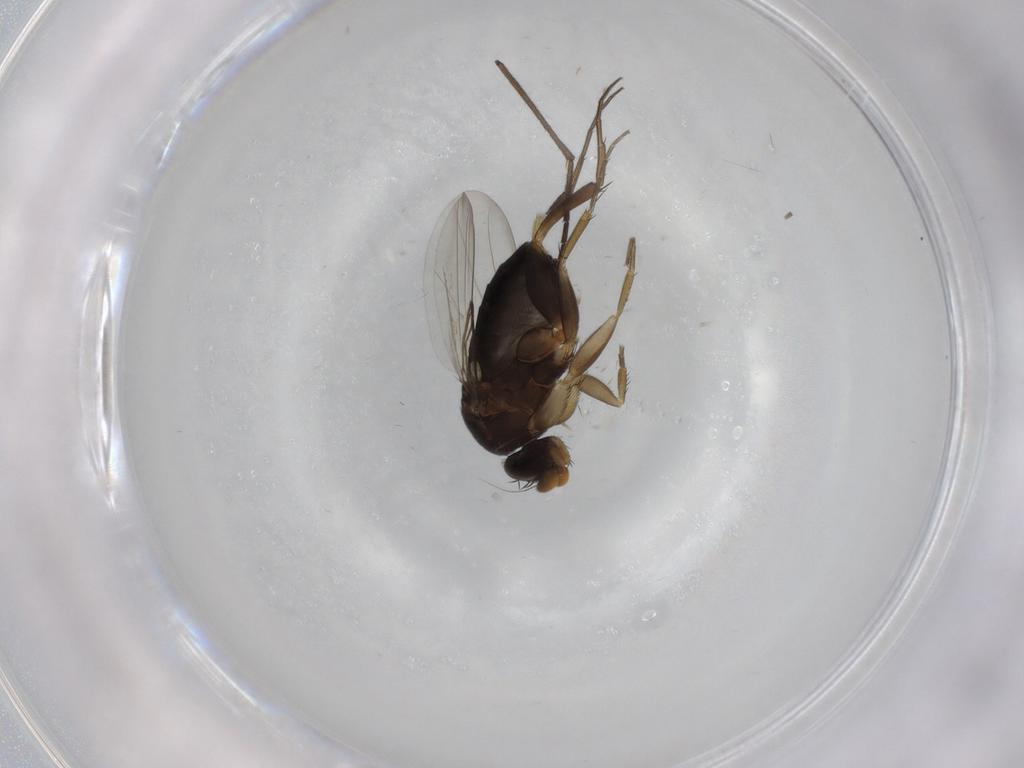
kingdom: Animalia
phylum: Arthropoda
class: Insecta
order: Diptera
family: Phoridae
